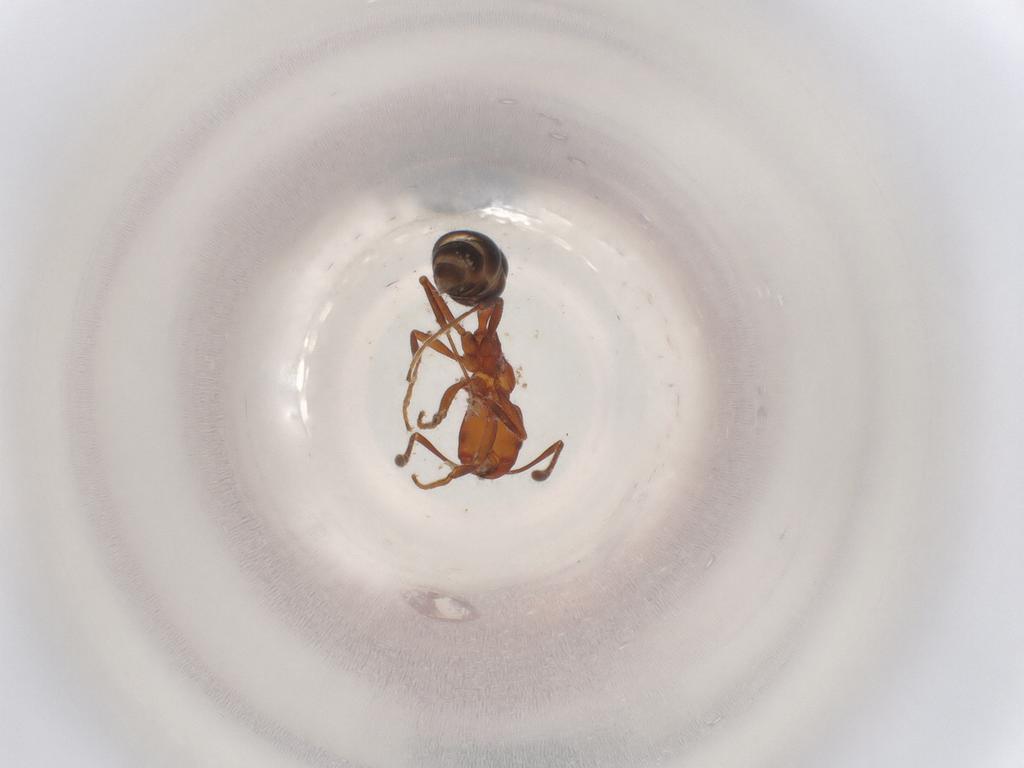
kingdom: Animalia
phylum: Arthropoda
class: Insecta
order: Hymenoptera
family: Formicidae
